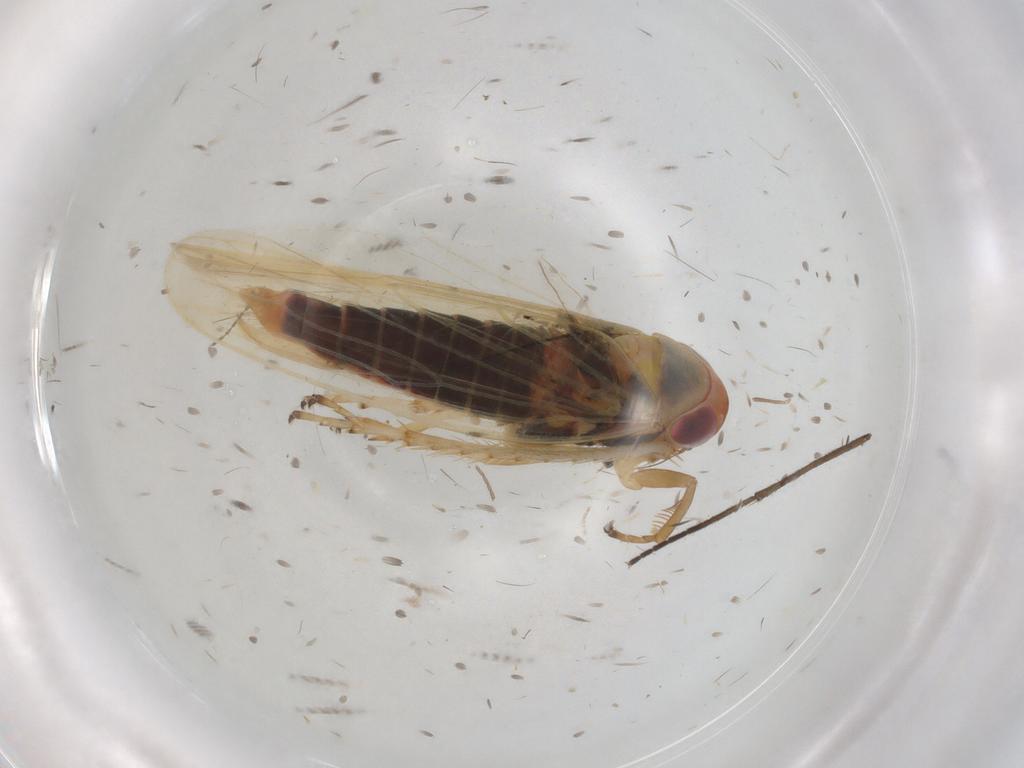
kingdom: Animalia
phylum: Arthropoda
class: Insecta
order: Hemiptera
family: Cicadellidae
